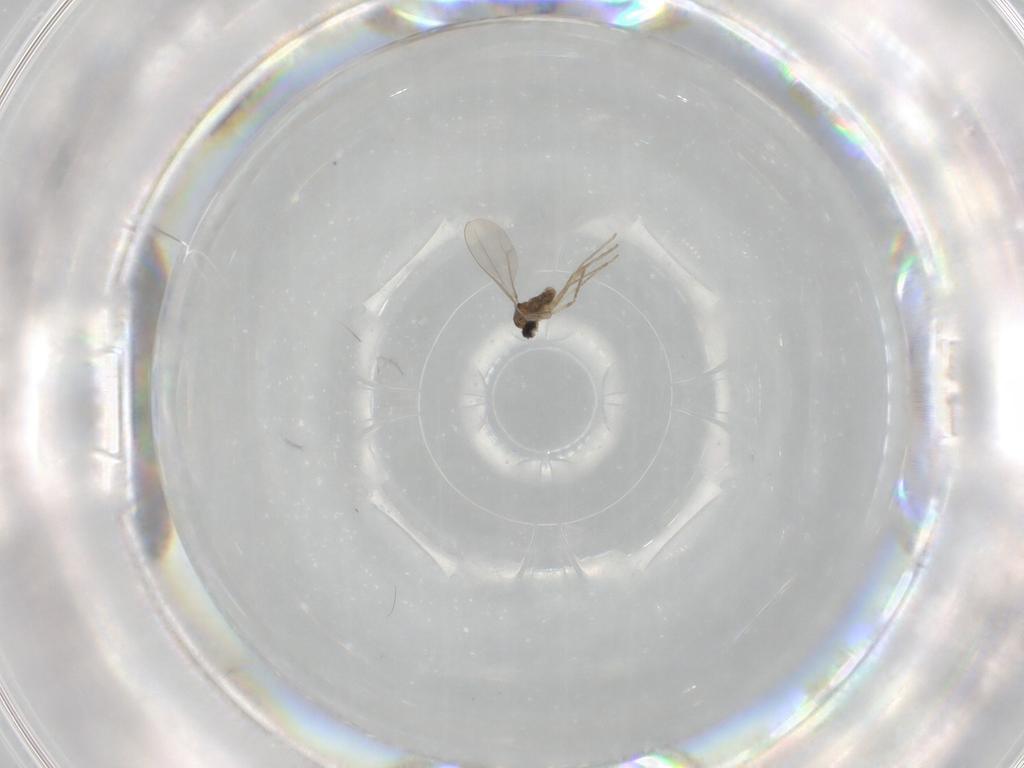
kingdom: Animalia
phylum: Arthropoda
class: Insecta
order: Diptera
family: Cecidomyiidae
